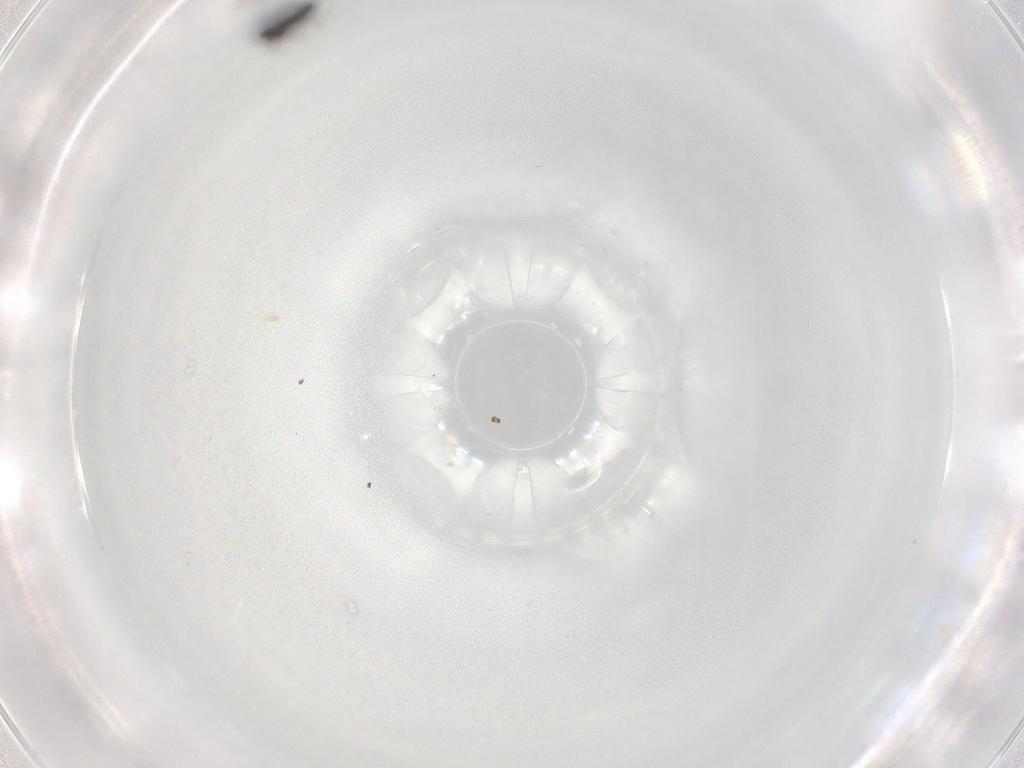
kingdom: Animalia
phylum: Arthropoda
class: Insecta
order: Hymenoptera
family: Trichogrammatidae
